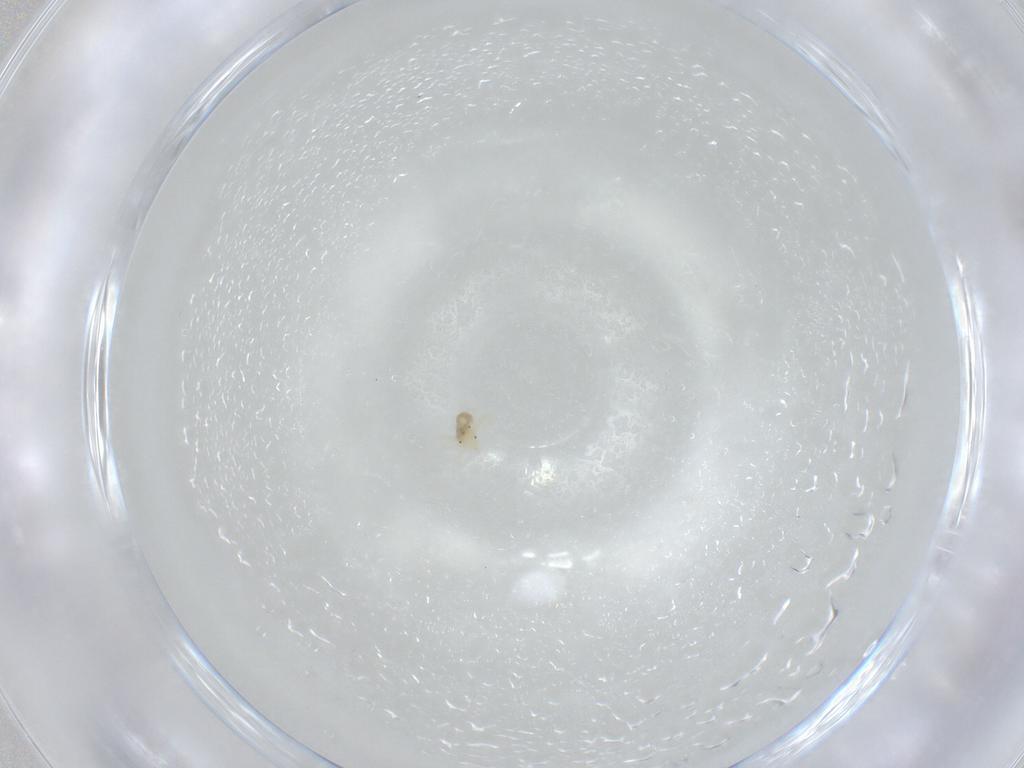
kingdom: Animalia
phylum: Arthropoda
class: Arachnida
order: Trombidiformes
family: Anystidae
